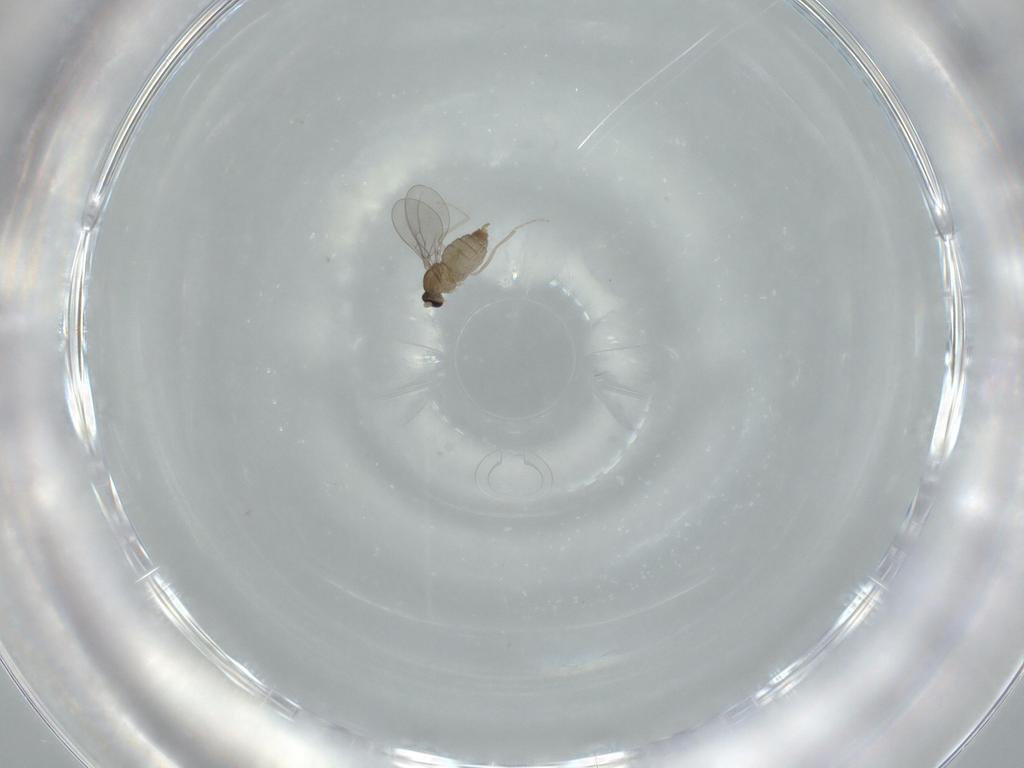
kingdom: Animalia
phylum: Arthropoda
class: Insecta
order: Diptera
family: Cecidomyiidae
